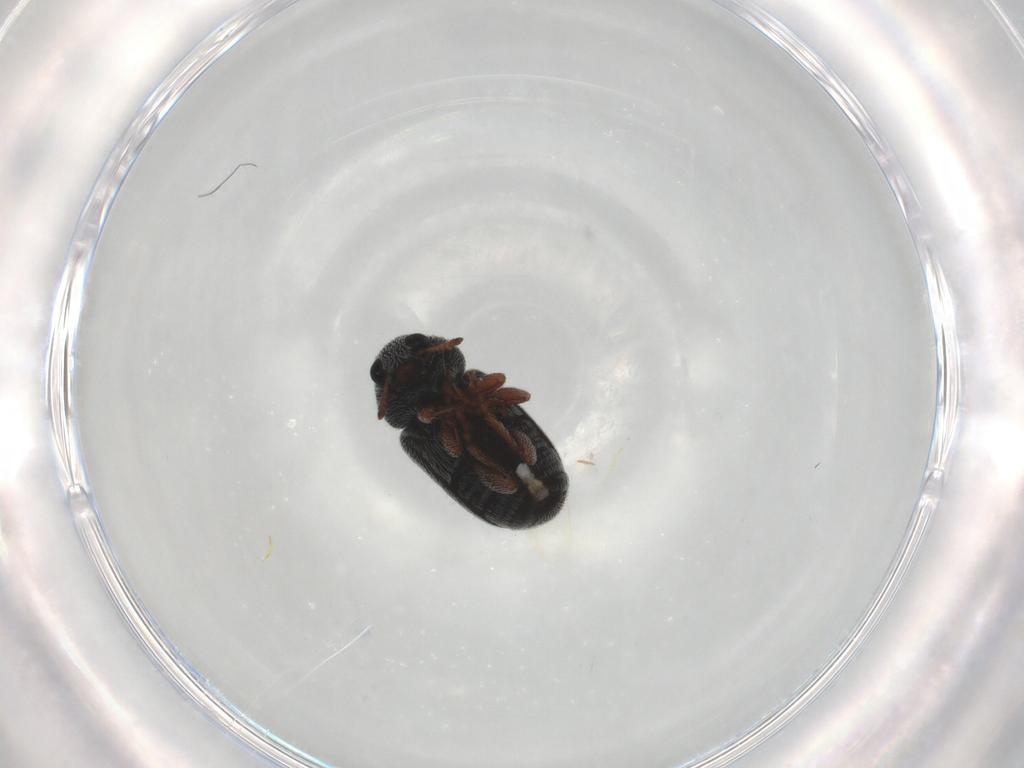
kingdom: Animalia
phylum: Arthropoda
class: Insecta
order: Coleoptera
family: Anthribidae
